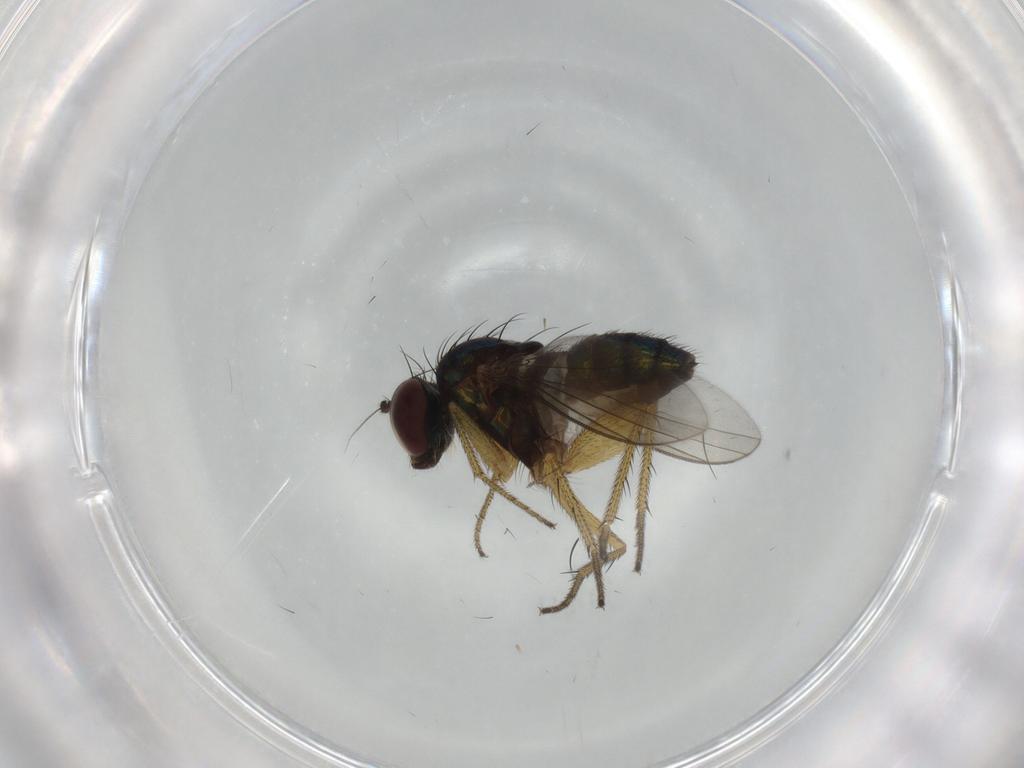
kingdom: Animalia
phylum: Arthropoda
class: Insecta
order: Diptera
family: Dolichopodidae
